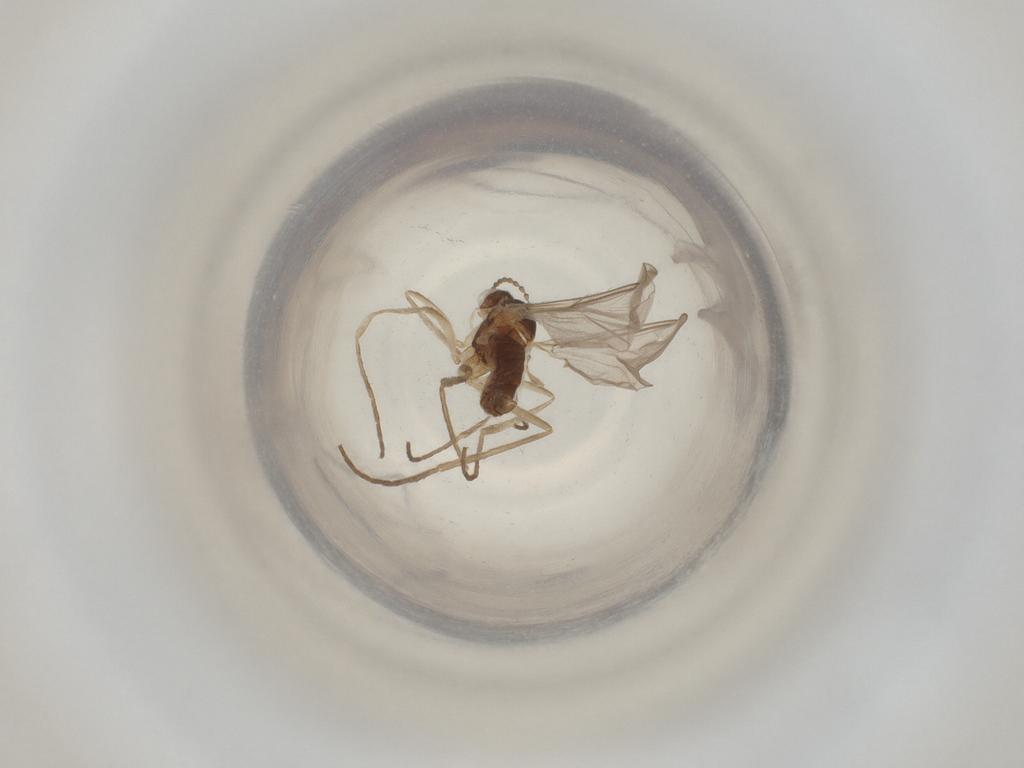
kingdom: Animalia
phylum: Arthropoda
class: Insecta
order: Diptera
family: Cecidomyiidae
